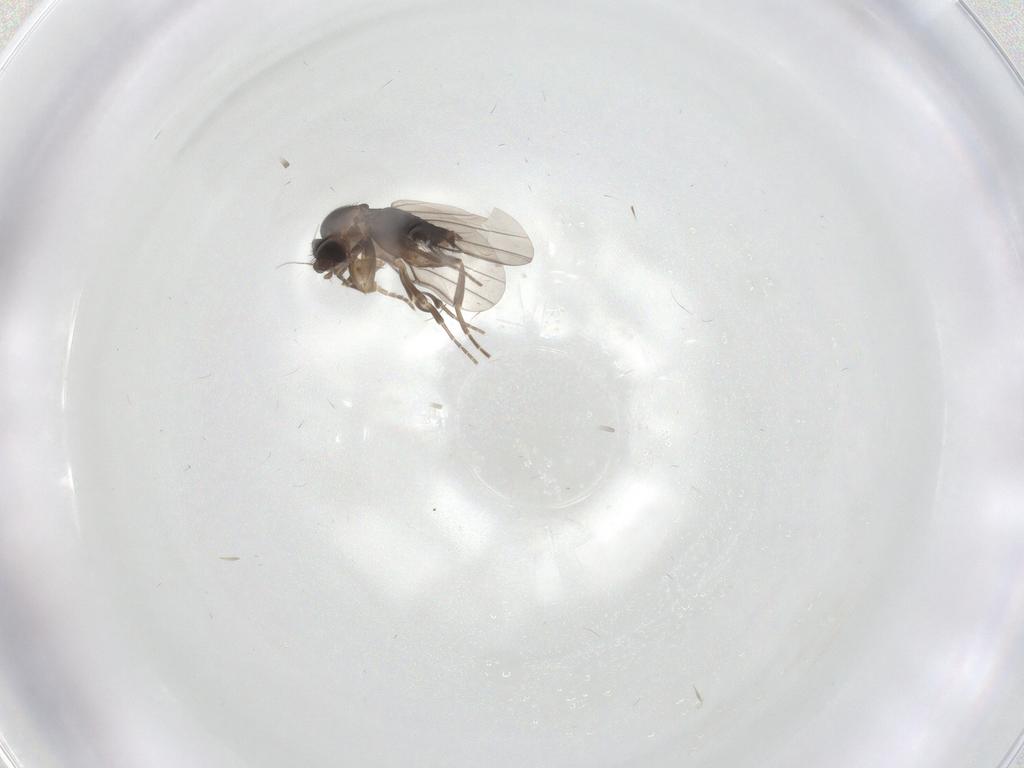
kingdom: Animalia
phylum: Arthropoda
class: Insecta
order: Diptera
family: Phoridae
